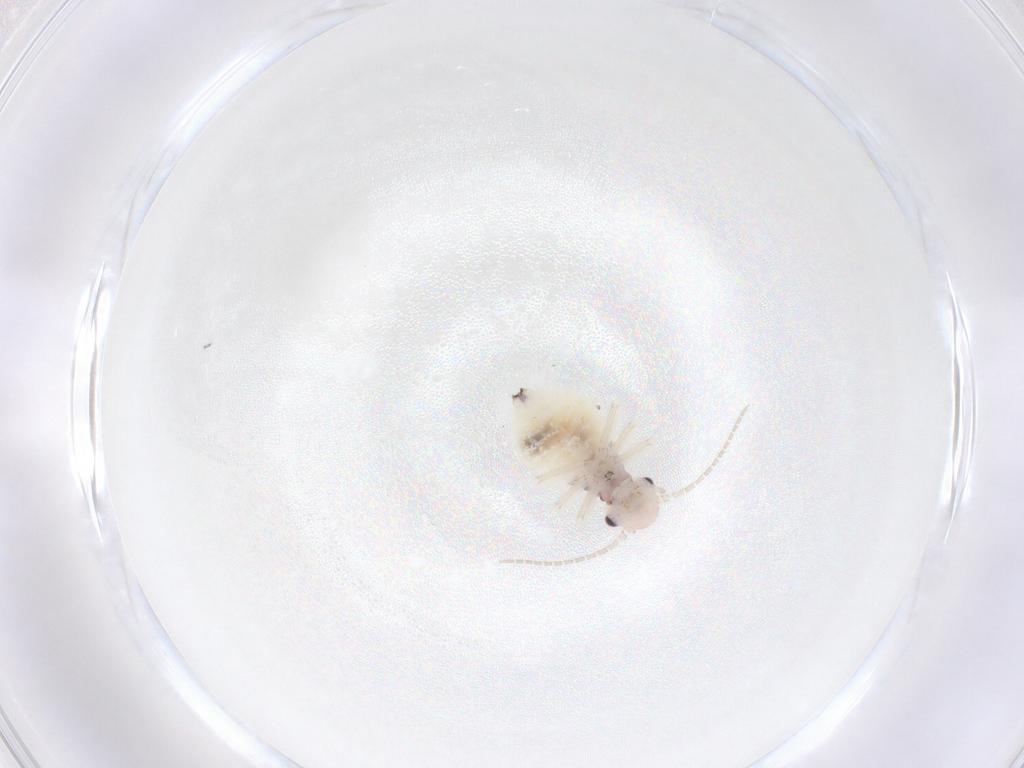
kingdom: Animalia
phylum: Arthropoda
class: Insecta
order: Psocodea
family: Amphipsocidae
